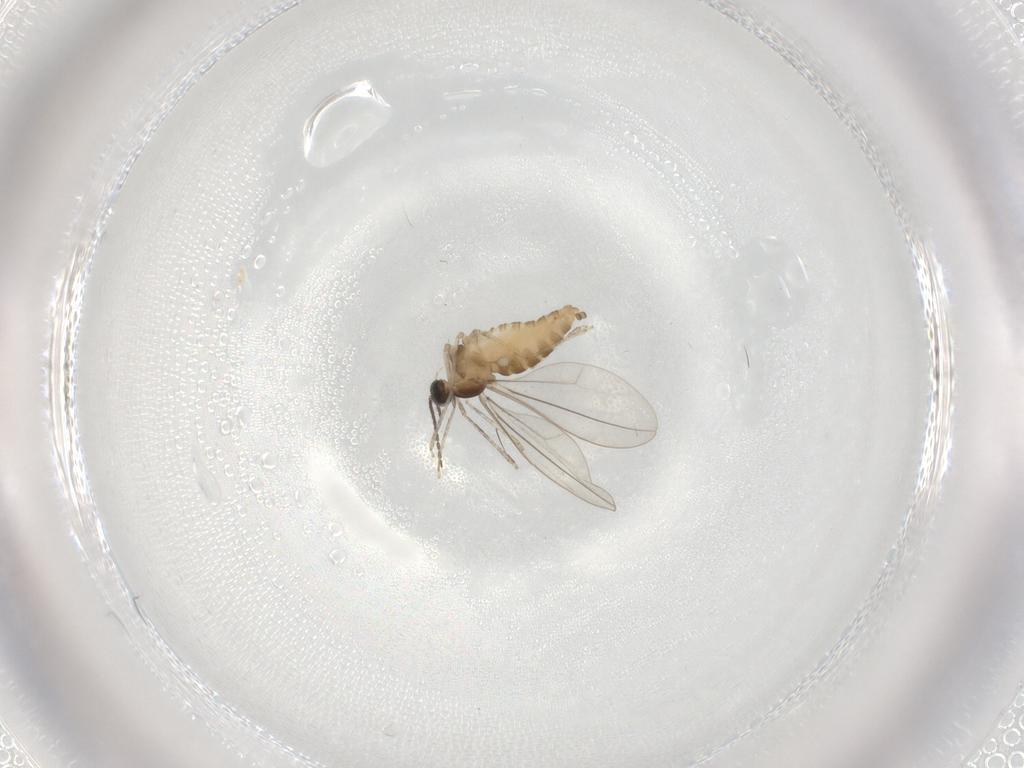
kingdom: Animalia
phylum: Arthropoda
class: Insecta
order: Diptera
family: Cecidomyiidae
